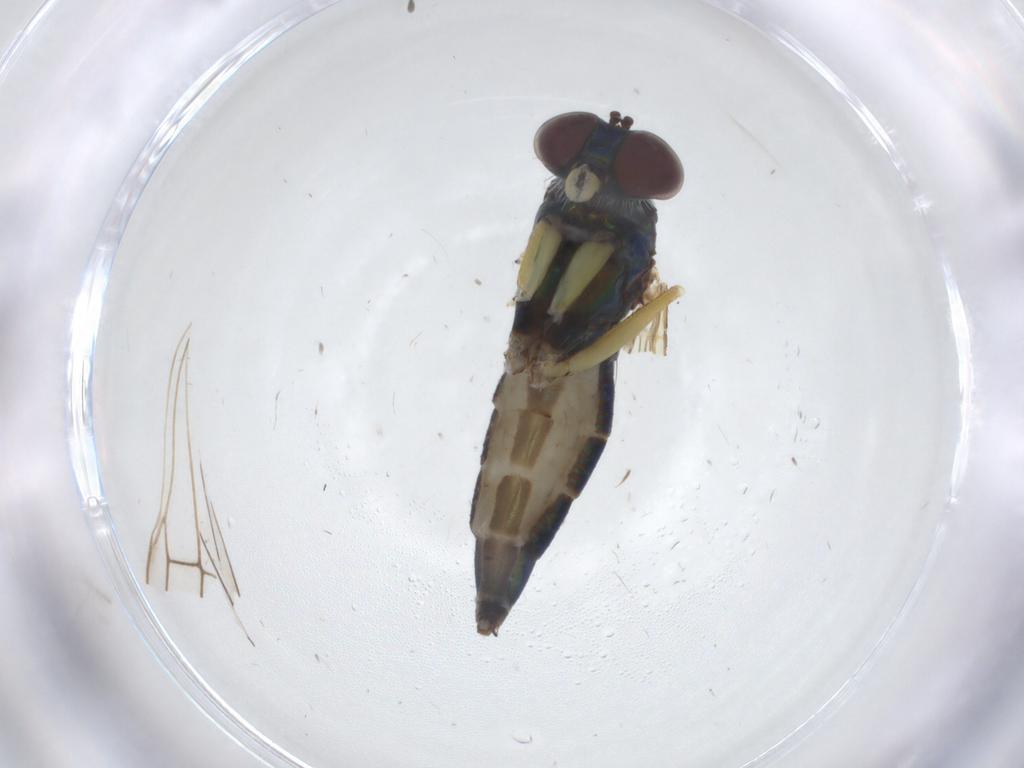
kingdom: Animalia
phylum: Arthropoda
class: Insecta
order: Diptera
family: Dolichopodidae
